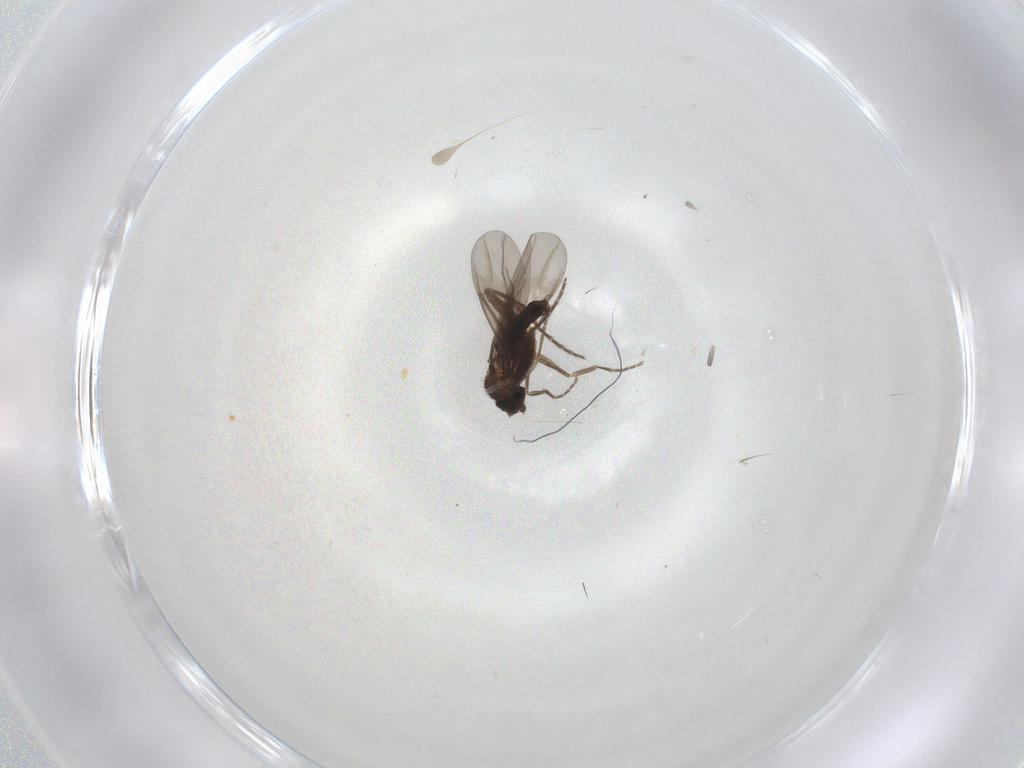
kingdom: Animalia
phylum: Arthropoda
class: Insecta
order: Diptera
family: Phoridae
